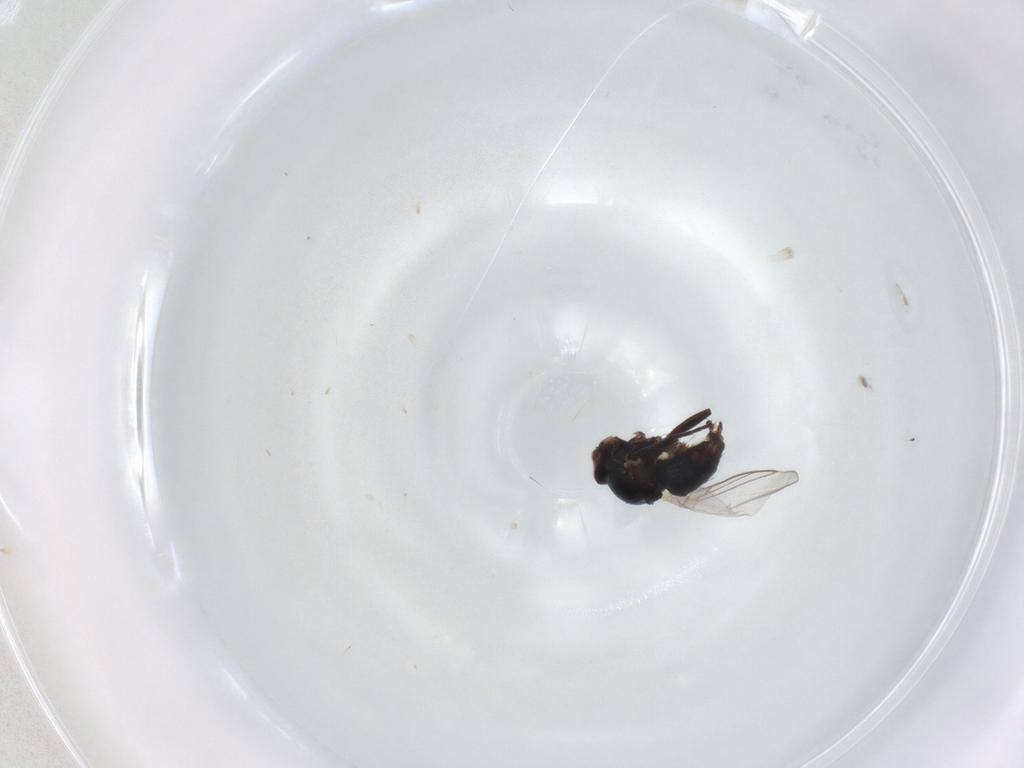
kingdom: Animalia
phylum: Arthropoda
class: Insecta
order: Diptera
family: Agromyzidae
